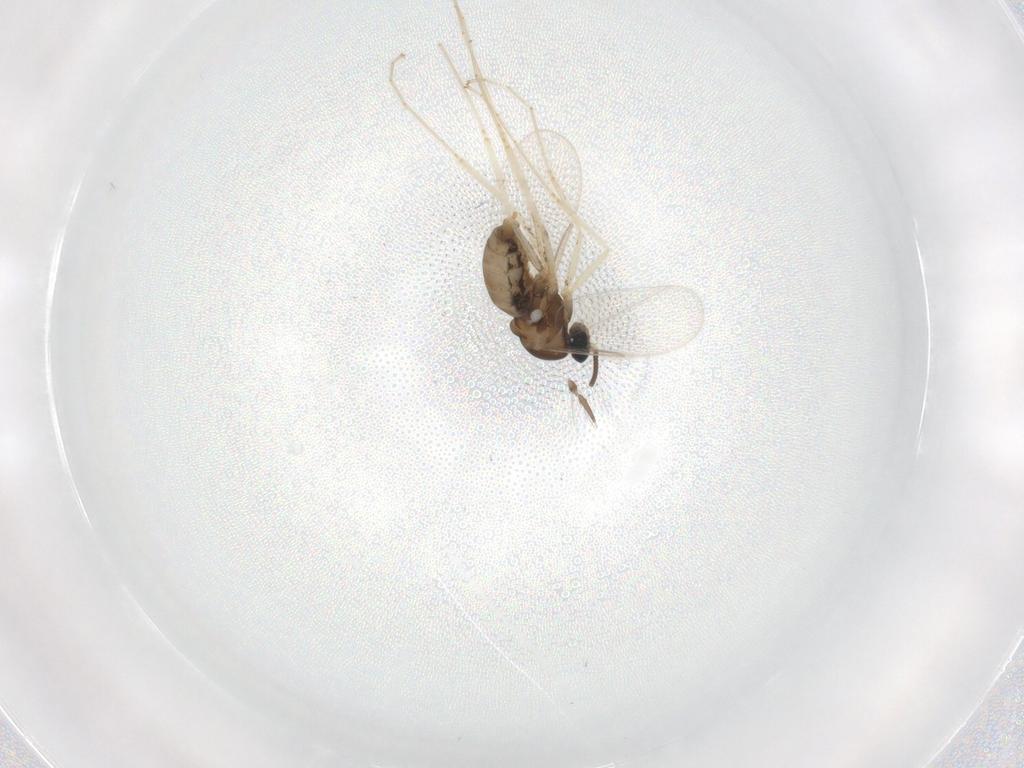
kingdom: Animalia
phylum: Arthropoda
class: Insecta
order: Diptera
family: Cecidomyiidae
